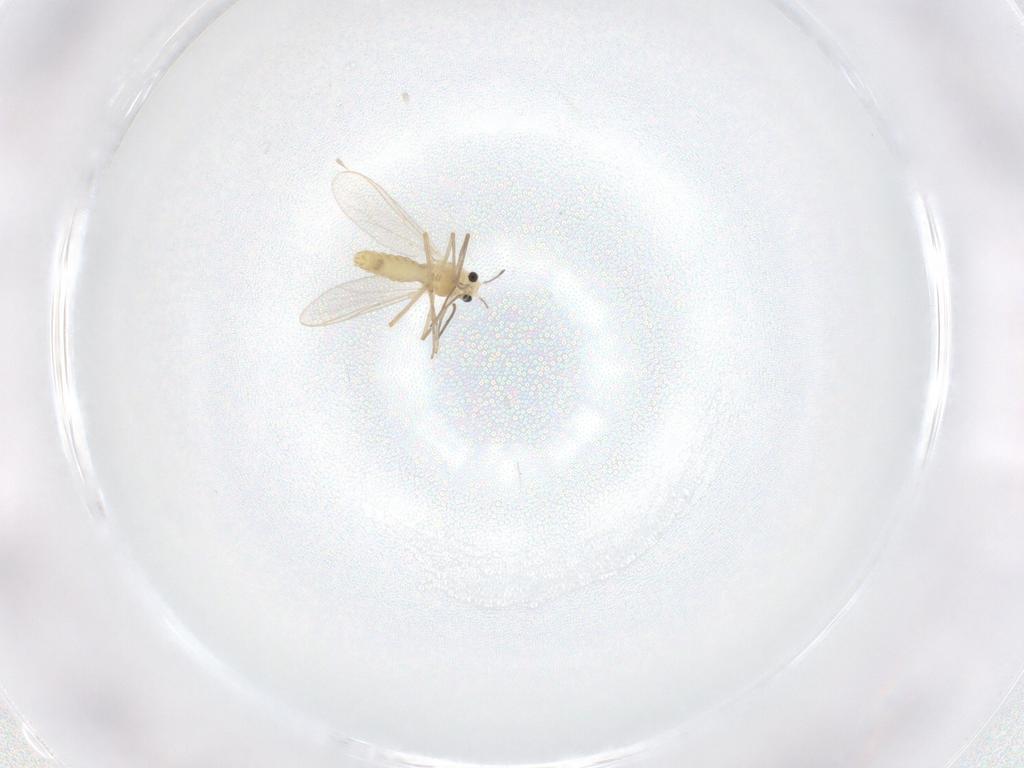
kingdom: Animalia
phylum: Arthropoda
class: Insecta
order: Diptera
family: Chironomidae
